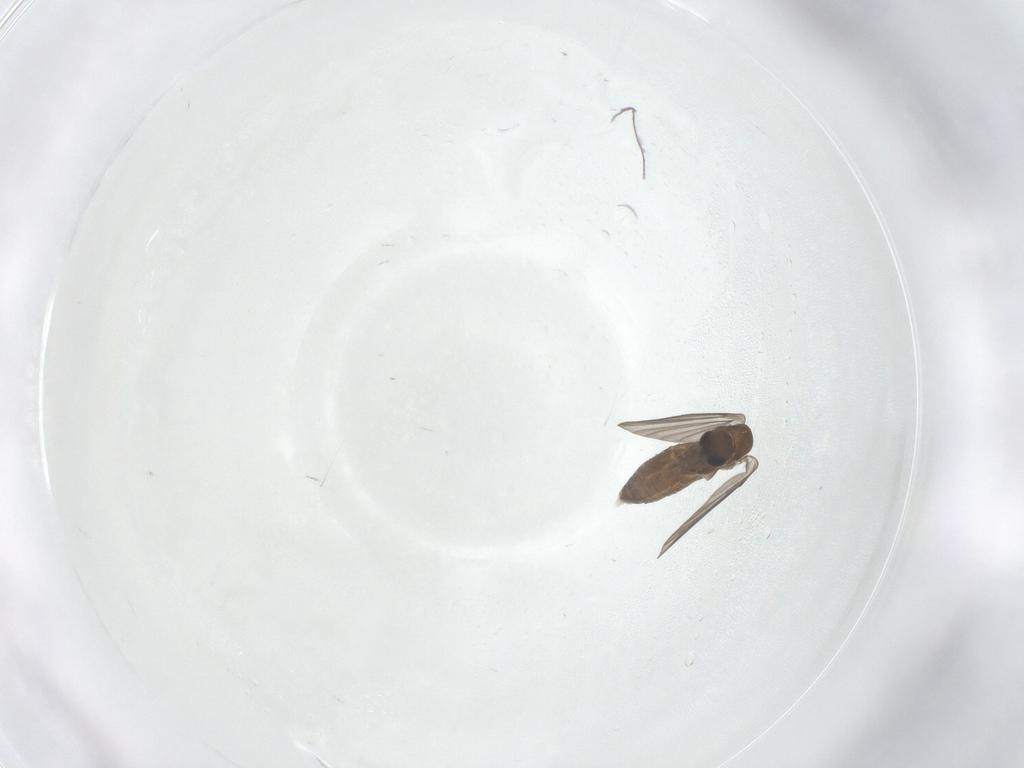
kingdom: Animalia
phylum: Arthropoda
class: Insecta
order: Diptera
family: Psychodidae
